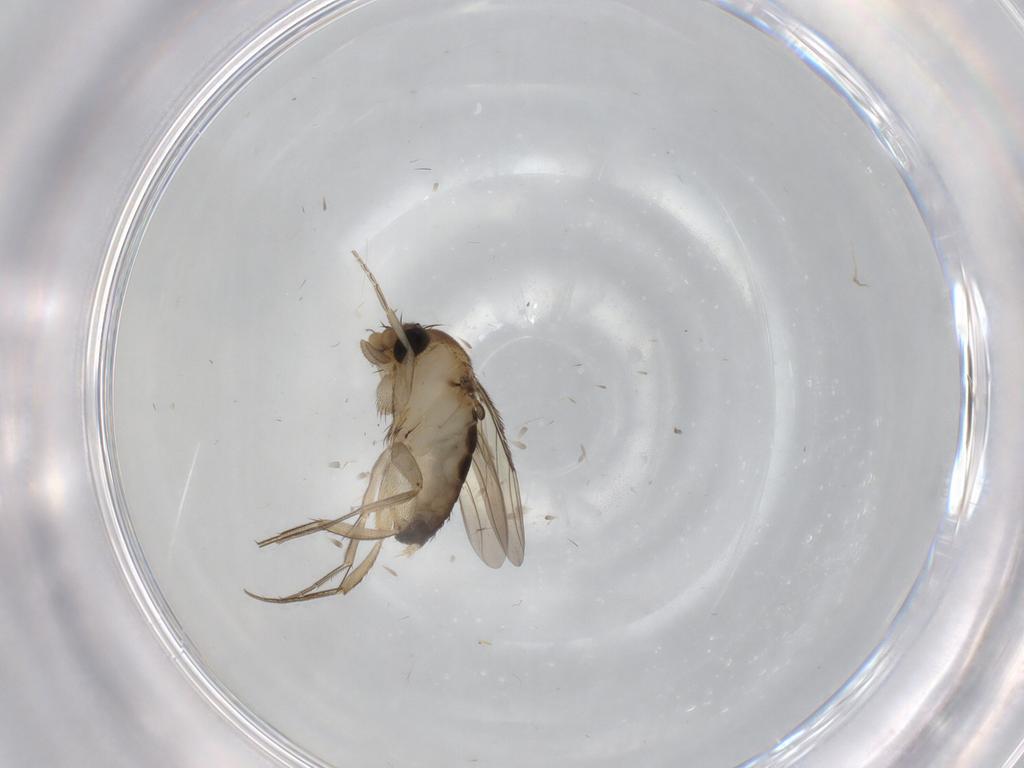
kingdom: Animalia
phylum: Arthropoda
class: Insecta
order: Diptera
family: Phoridae
